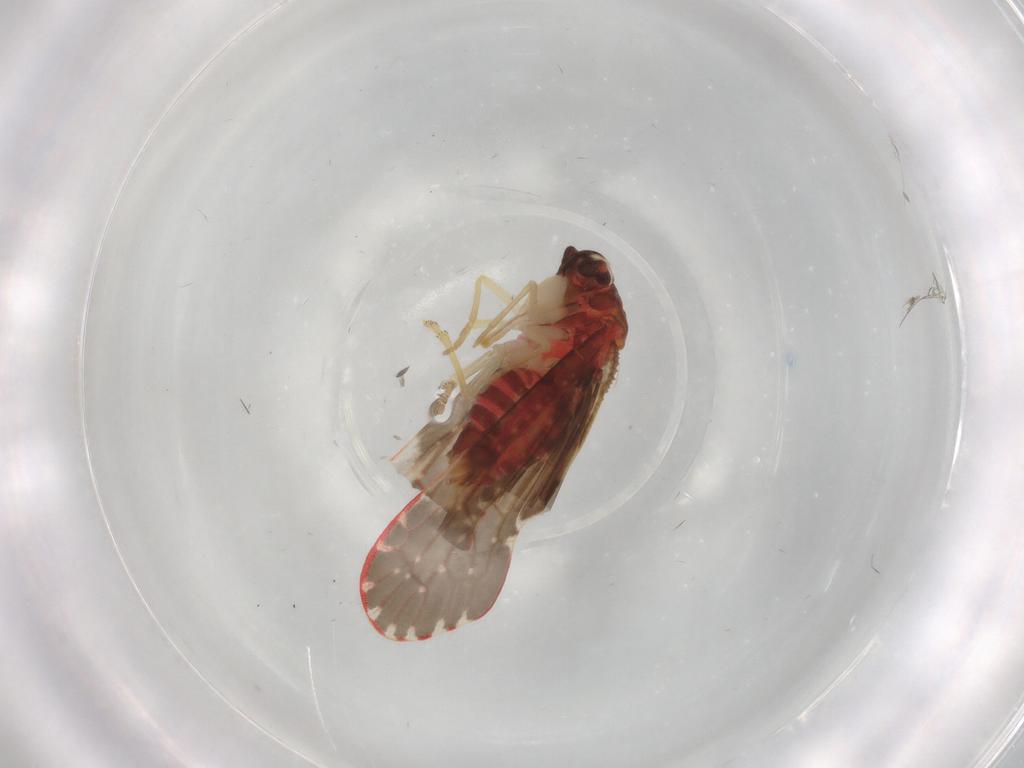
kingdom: Animalia
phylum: Arthropoda
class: Insecta
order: Hemiptera
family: Derbidae
